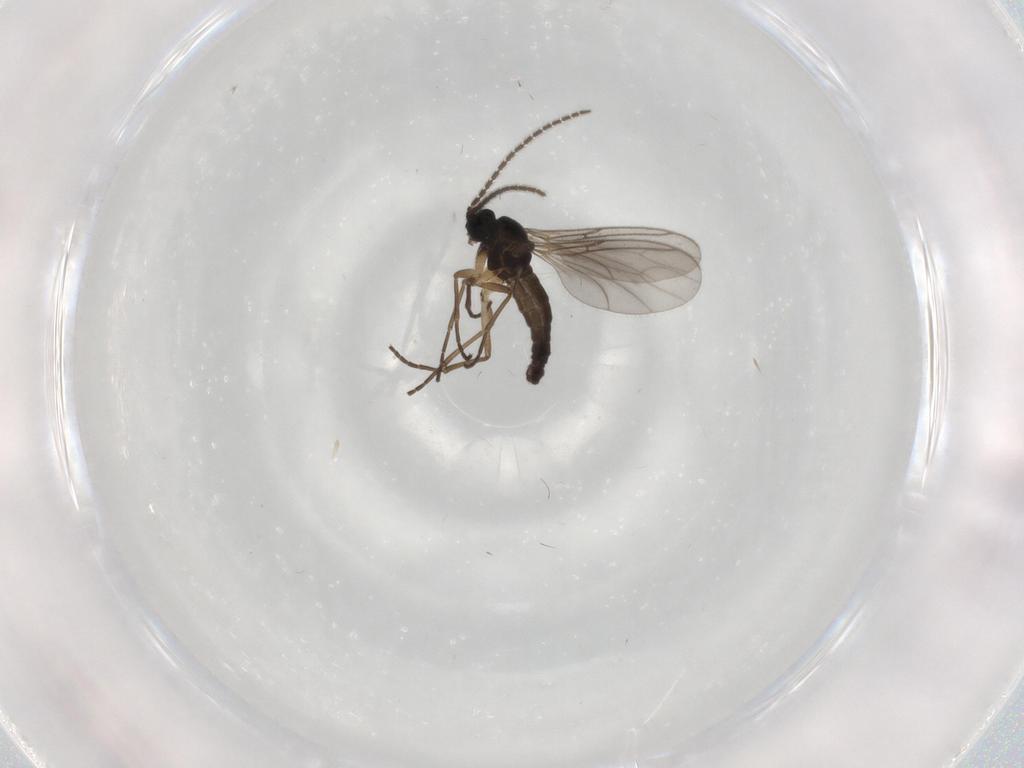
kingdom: Animalia
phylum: Arthropoda
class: Insecta
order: Diptera
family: Sciaridae
